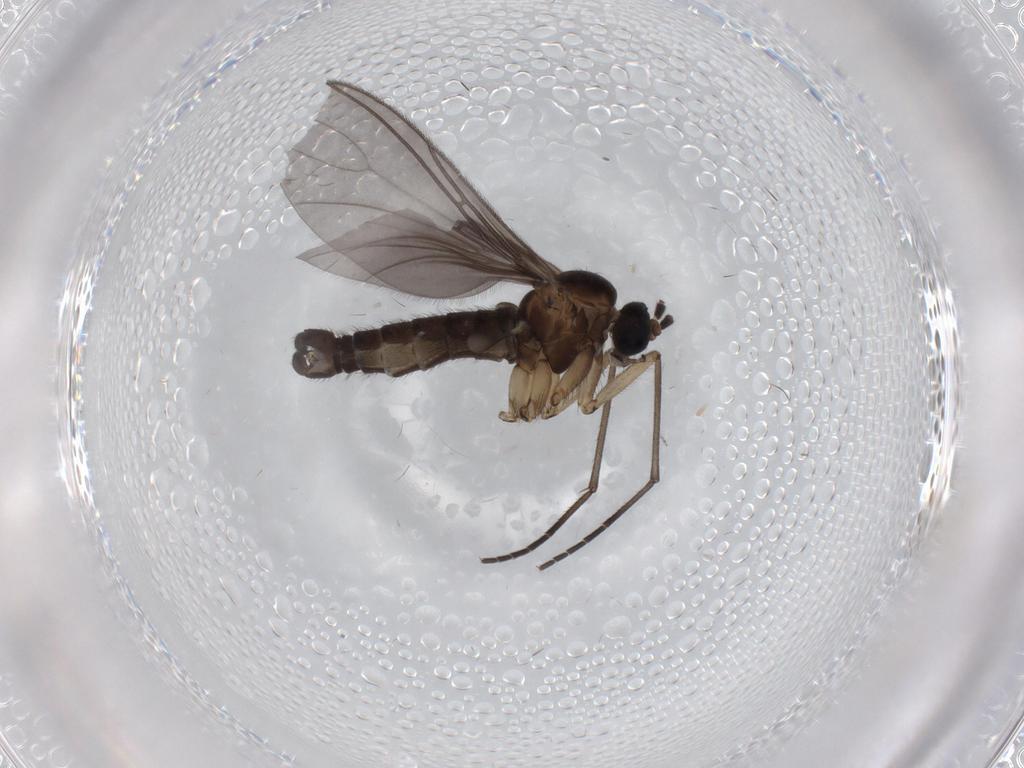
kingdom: Animalia
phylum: Arthropoda
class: Insecta
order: Diptera
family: Sciaridae
